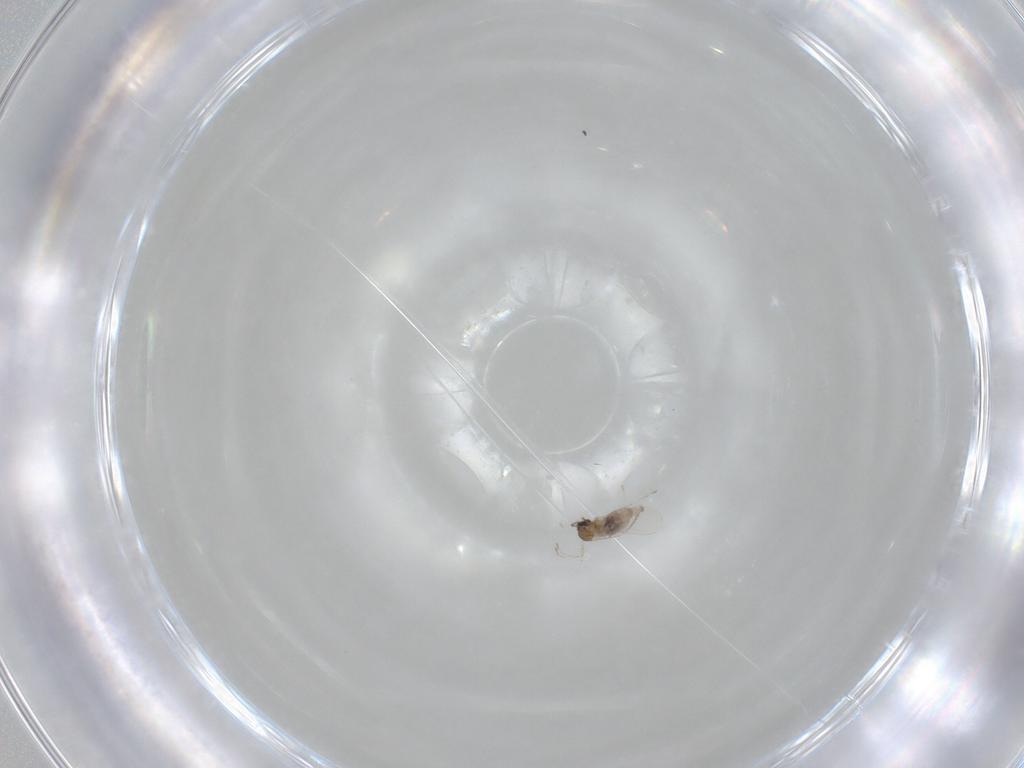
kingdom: Animalia
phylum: Arthropoda
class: Insecta
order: Diptera
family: Cecidomyiidae
